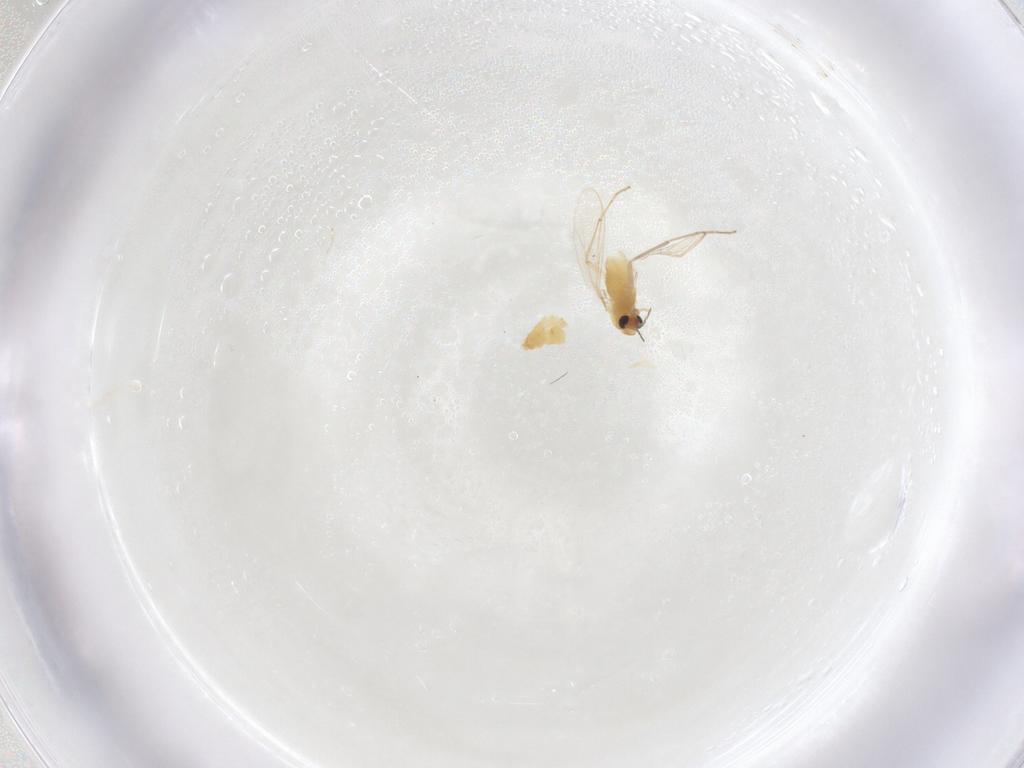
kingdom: Animalia
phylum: Arthropoda
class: Insecta
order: Diptera
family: Chironomidae
